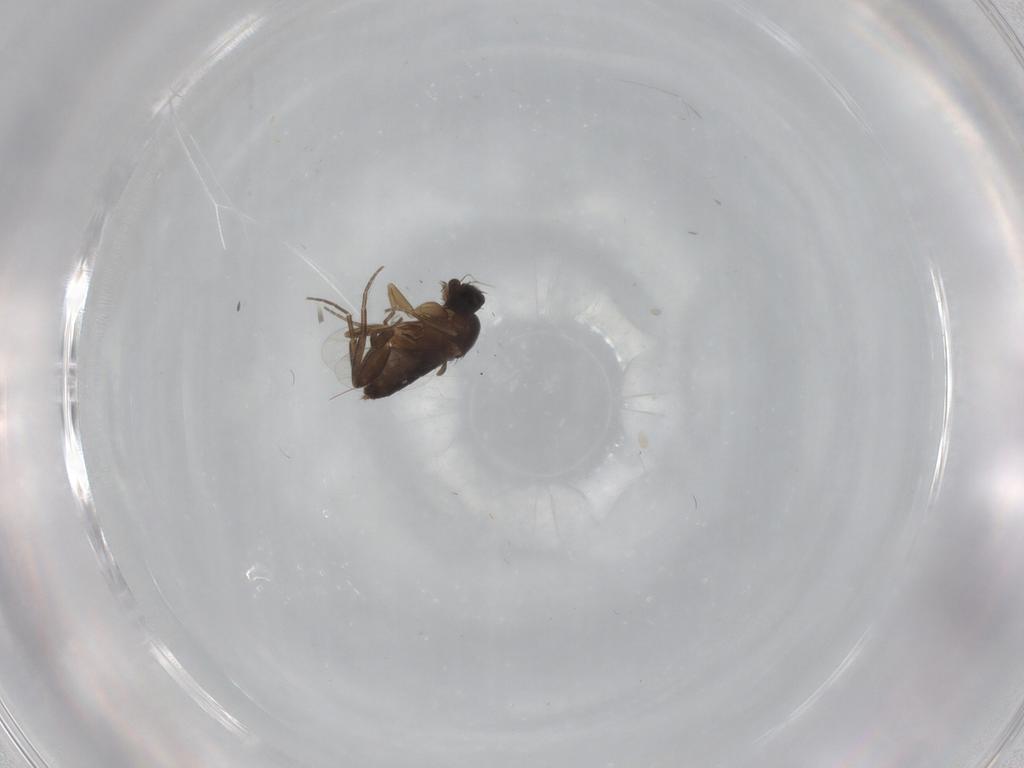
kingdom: Animalia
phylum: Arthropoda
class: Insecta
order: Diptera
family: Phoridae
